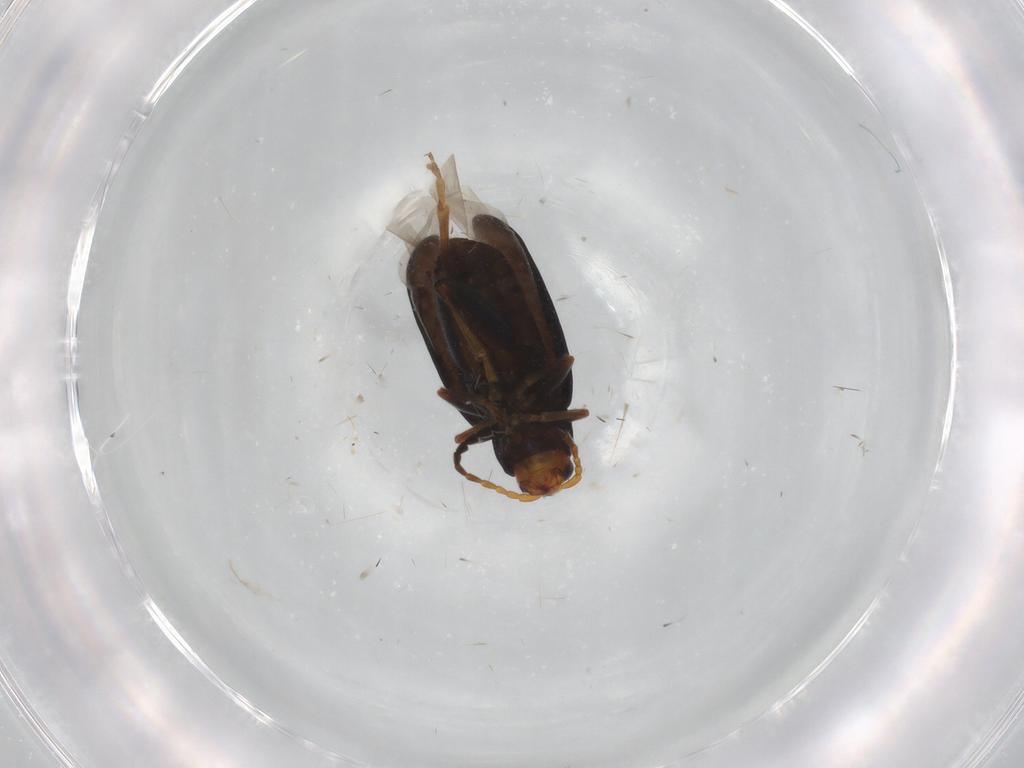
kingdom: Animalia
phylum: Arthropoda
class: Insecta
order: Coleoptera
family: Chrysomelidae
